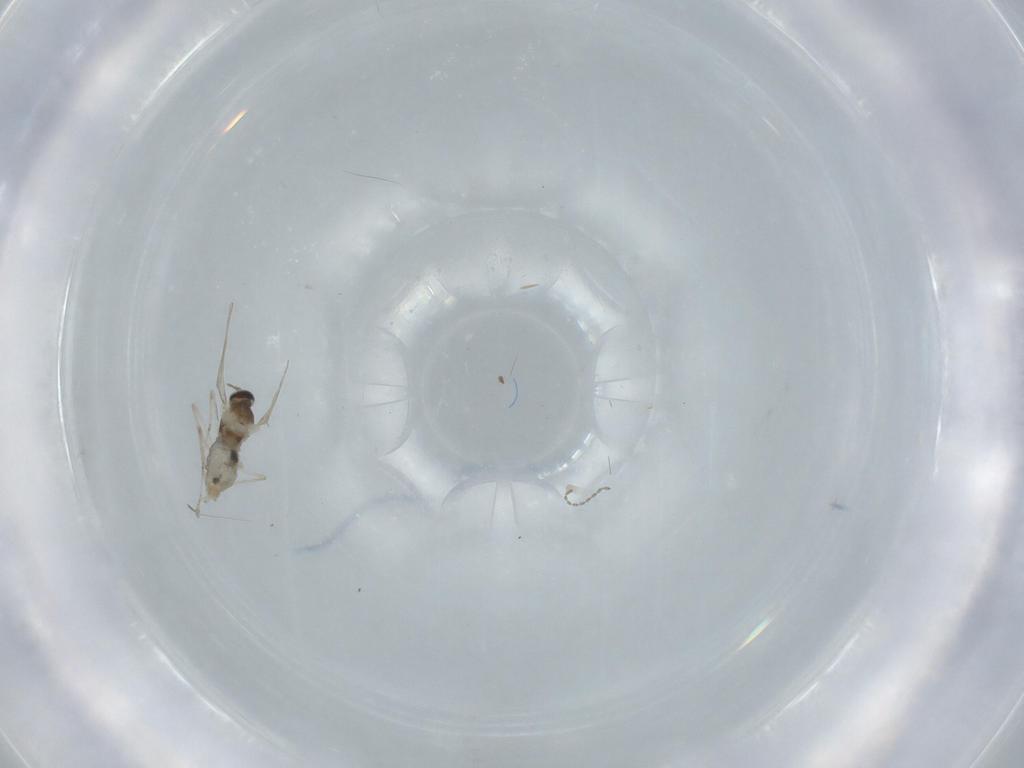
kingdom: Animalia
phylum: Arthropoda
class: Insecta
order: Diptera
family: Cecidomyiidae
